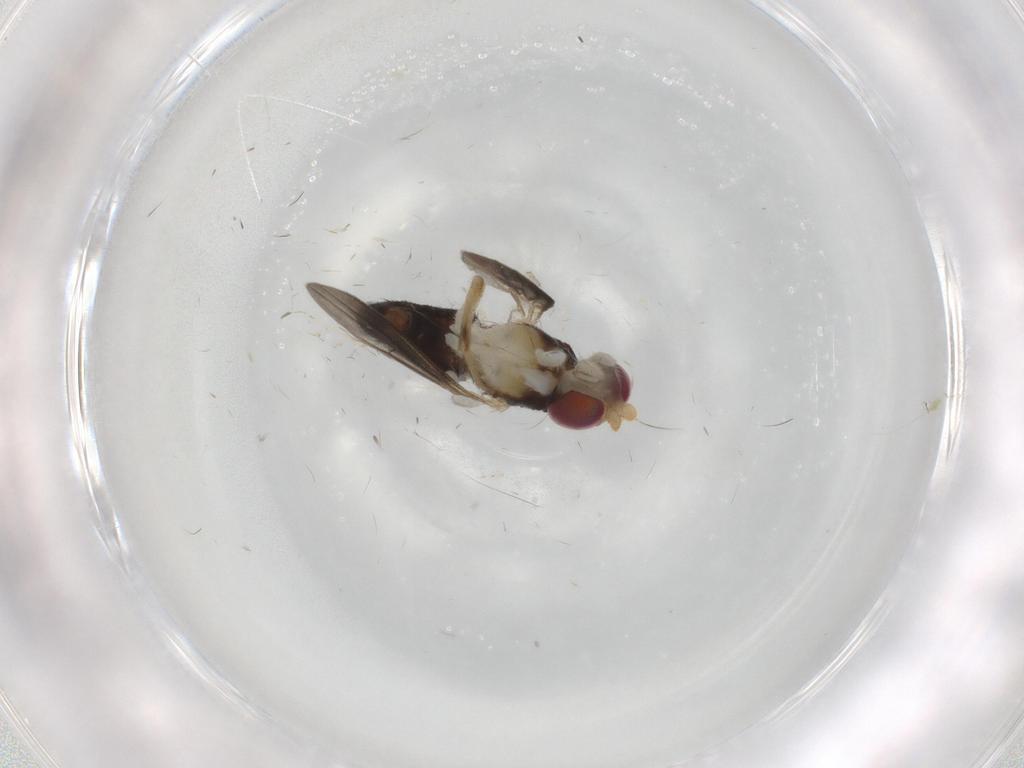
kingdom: Animalia
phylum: Arthropoda
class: Insecta
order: Diptera
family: Clusiidae
